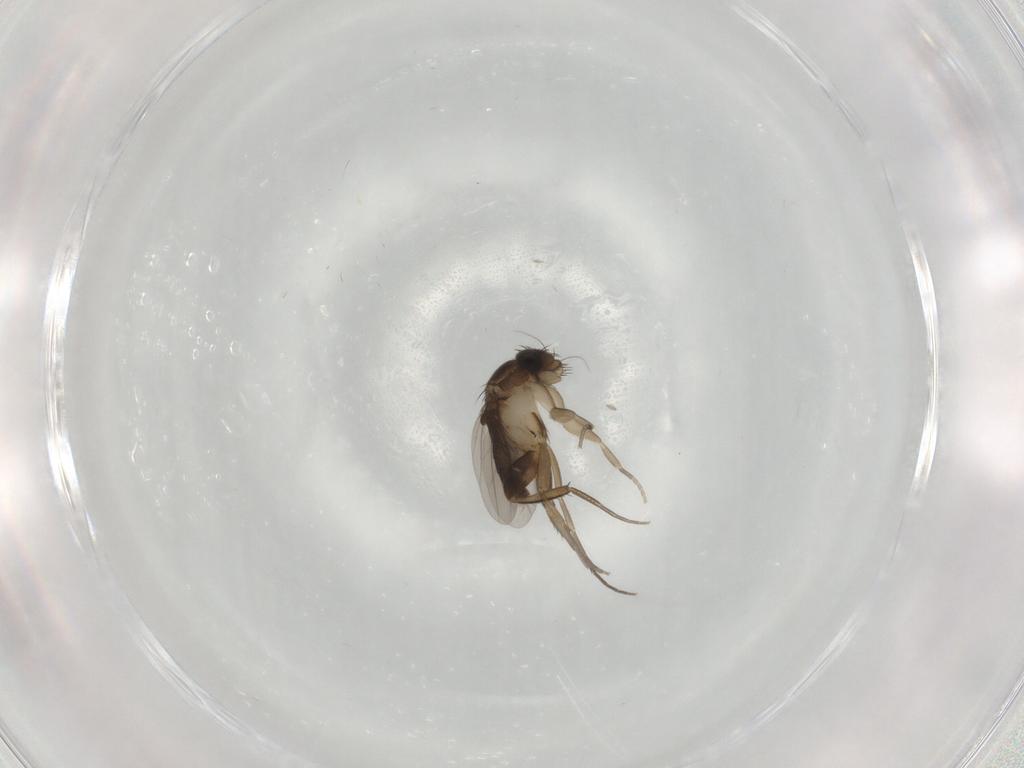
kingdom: Animalia
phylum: Arthropoda
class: Insecta
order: Diptera
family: Phoridae
